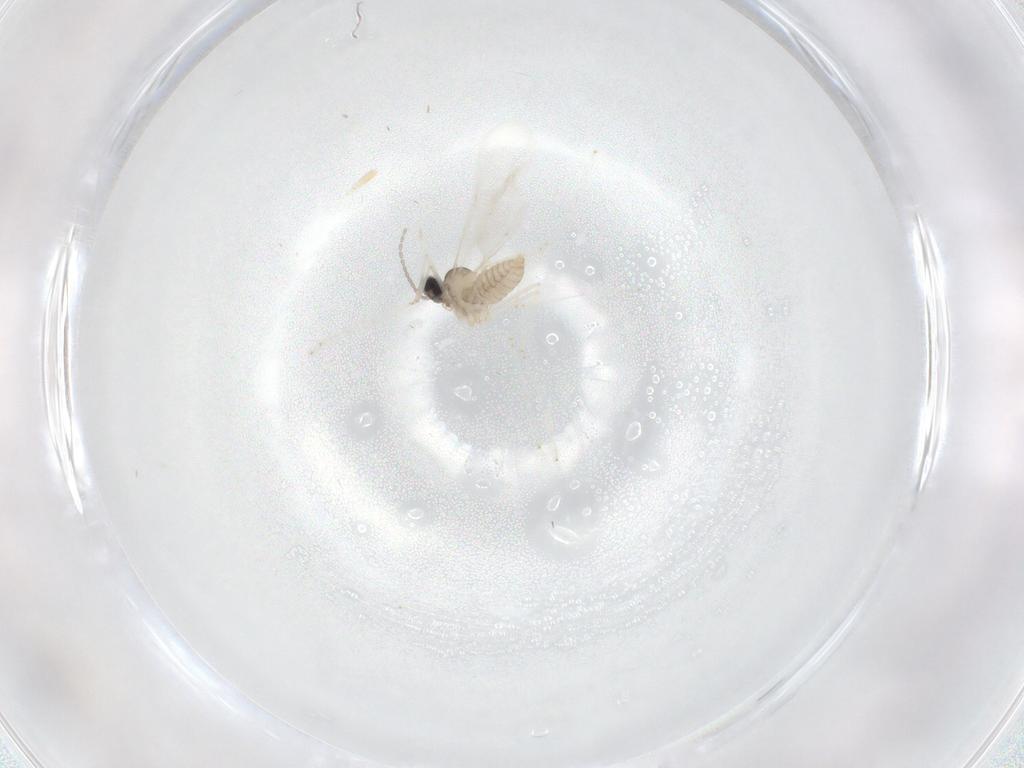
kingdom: Animalia
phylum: Arthropoda
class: Insecta
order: Diptera
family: Cecidomyiidae
